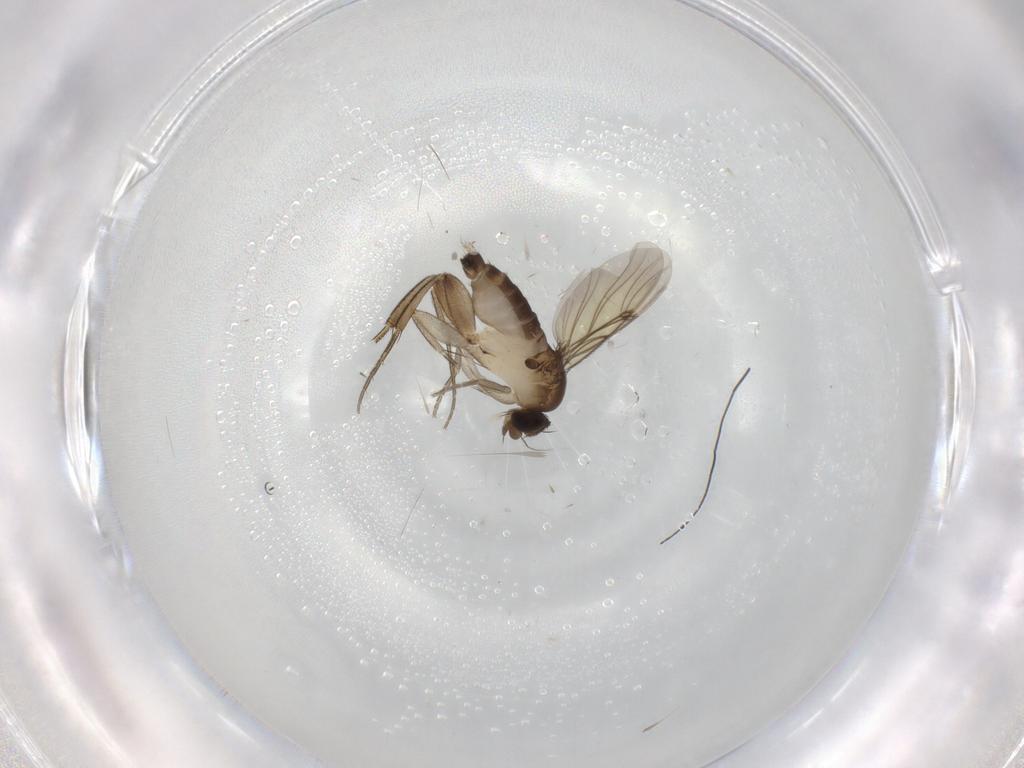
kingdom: Animalia
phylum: Arthropoda
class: Insecta
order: Diptera
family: Phoridae
